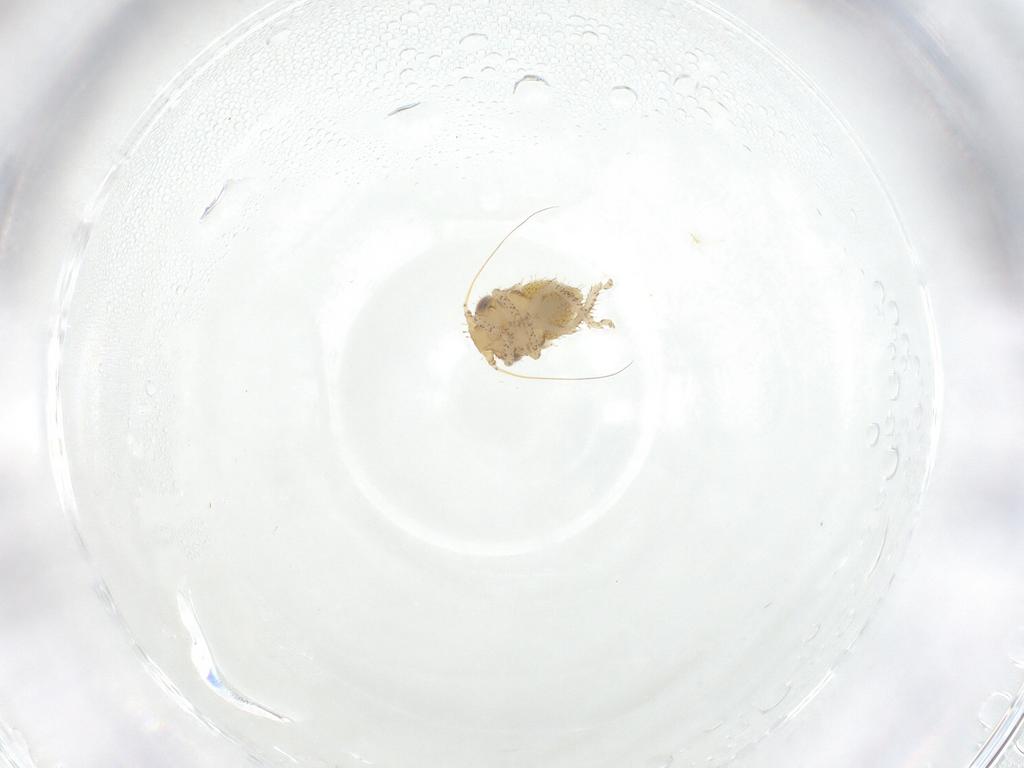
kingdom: Animalia
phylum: Arthropoda
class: Insecta
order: Hemiptera
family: Cicadellidae
